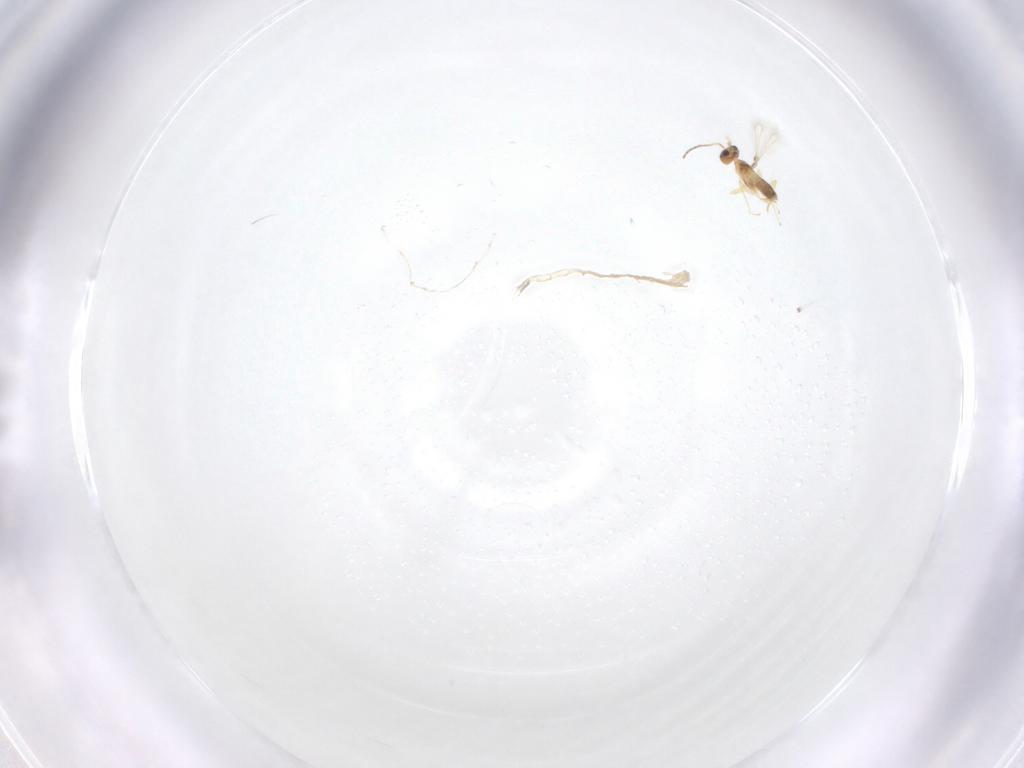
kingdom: Animalia
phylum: Arthropoda
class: Insecta
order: Hymenoptera
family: Mymaridae
